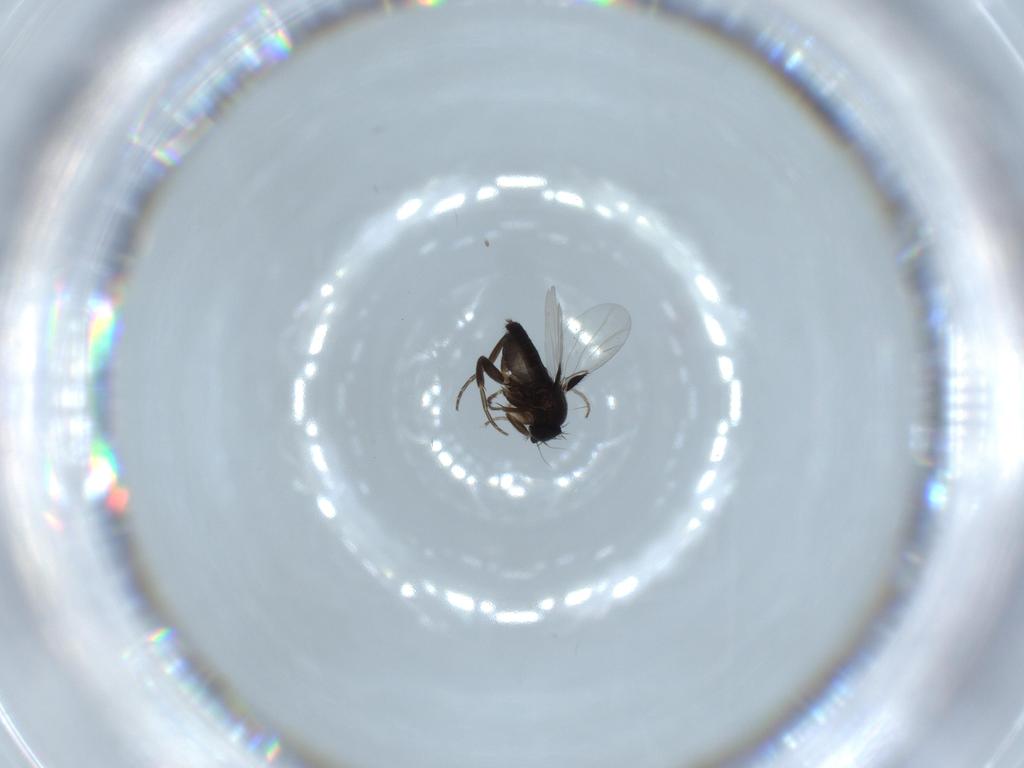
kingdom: Animalia
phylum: Arthropoda
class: Insecta
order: Diptera
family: Phoridae
